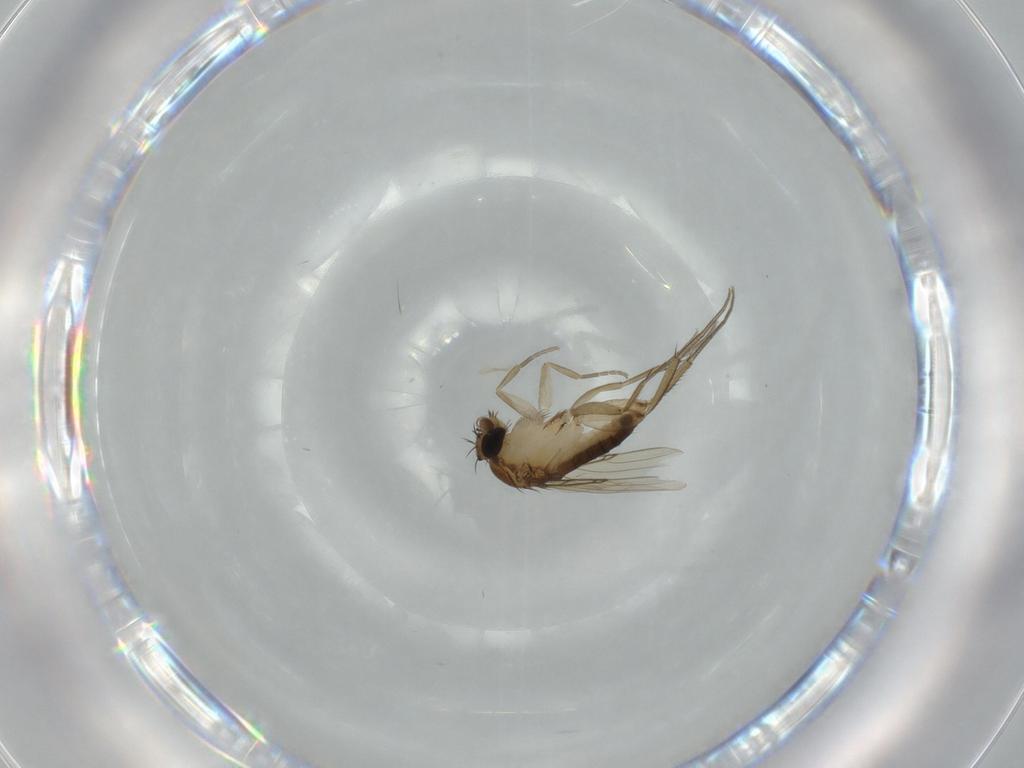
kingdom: Animalia
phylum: Arthropoda
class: Insecta
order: Diptera
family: Phoridae
